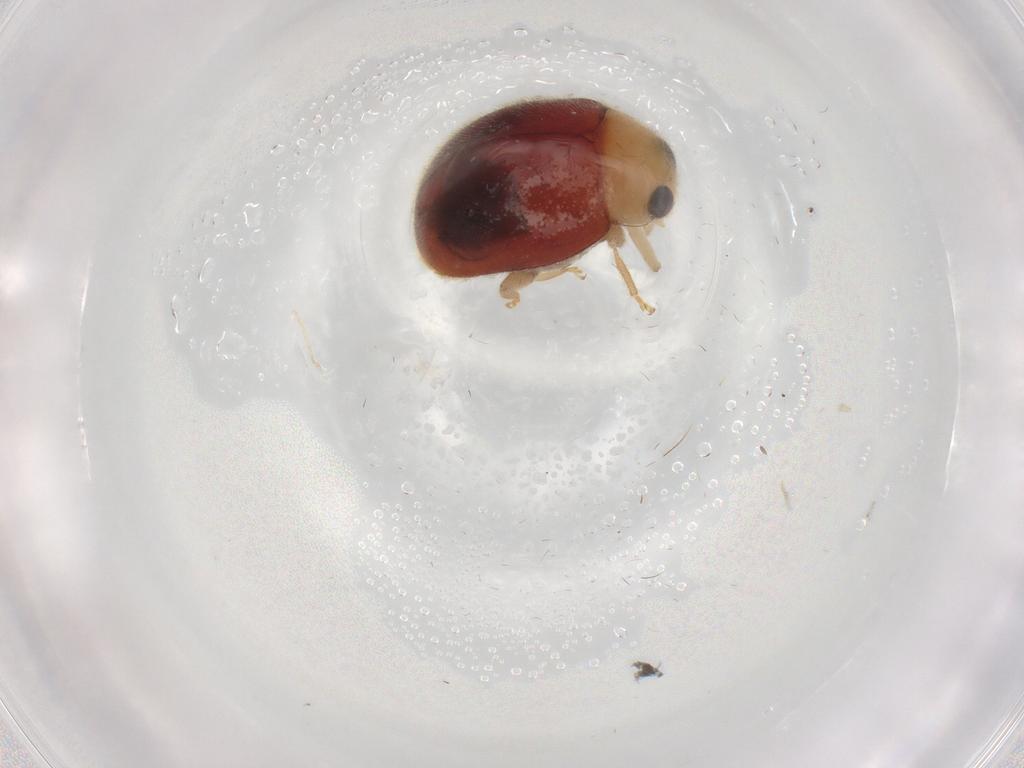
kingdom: Animalia
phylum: Arthropoda
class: Insecta
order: Coleoptera
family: Coccinellidae
